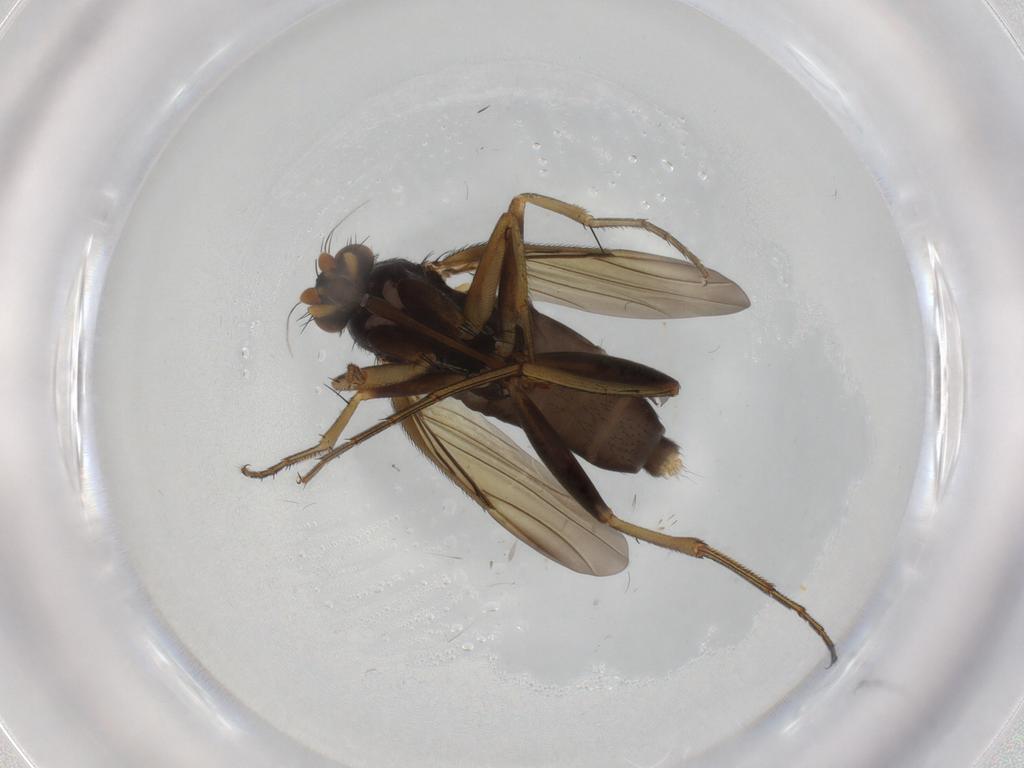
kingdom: Animalia
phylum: Arthropoda
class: Insecta
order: Diptera
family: Phoridae
